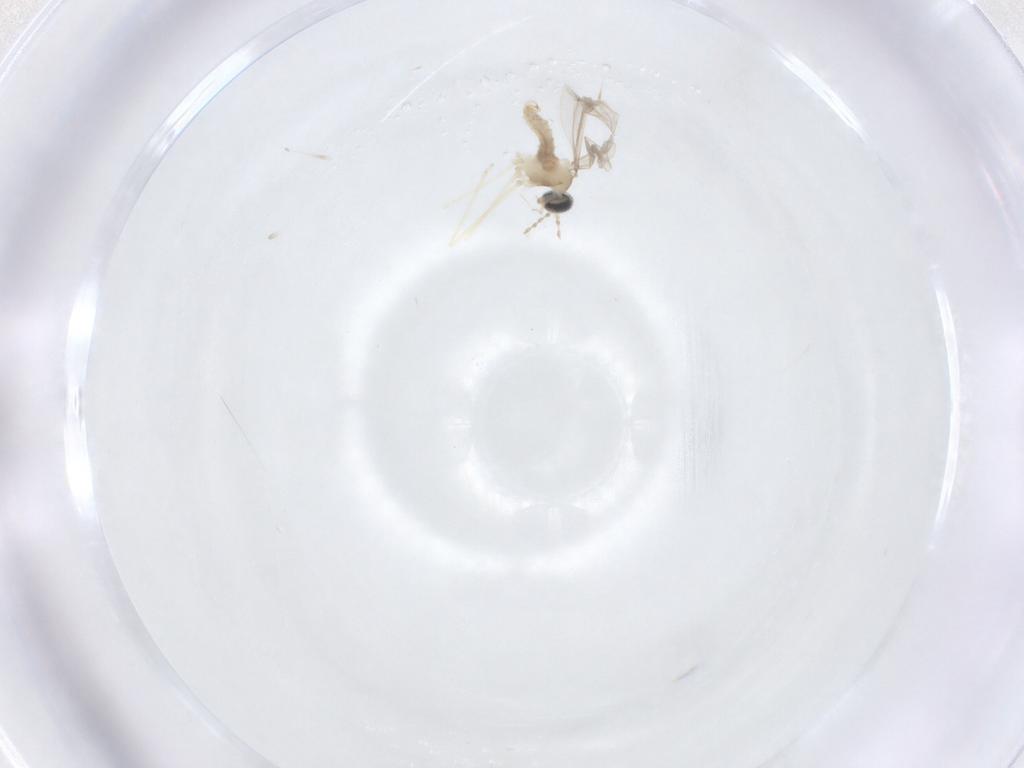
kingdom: Animalia
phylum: Arthropoda
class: Insecta
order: Diptera
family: Cecidomyiidae
